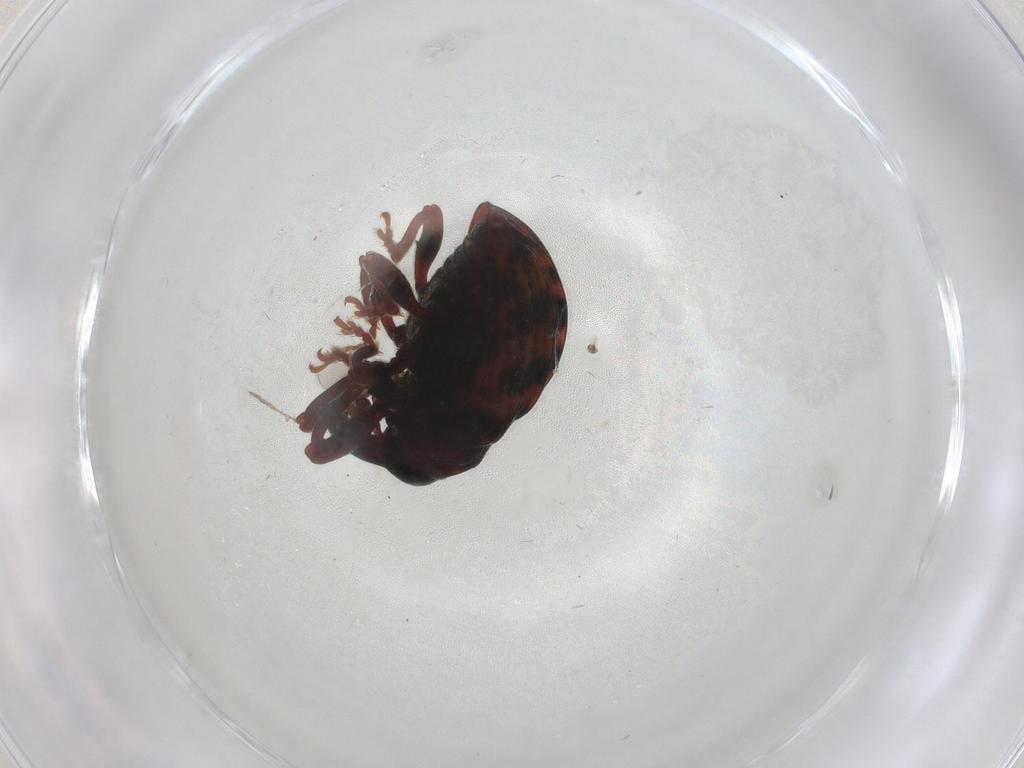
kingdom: Animalia
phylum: Arthropoda
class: Insecta
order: Coleoptera
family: Curculionidae
